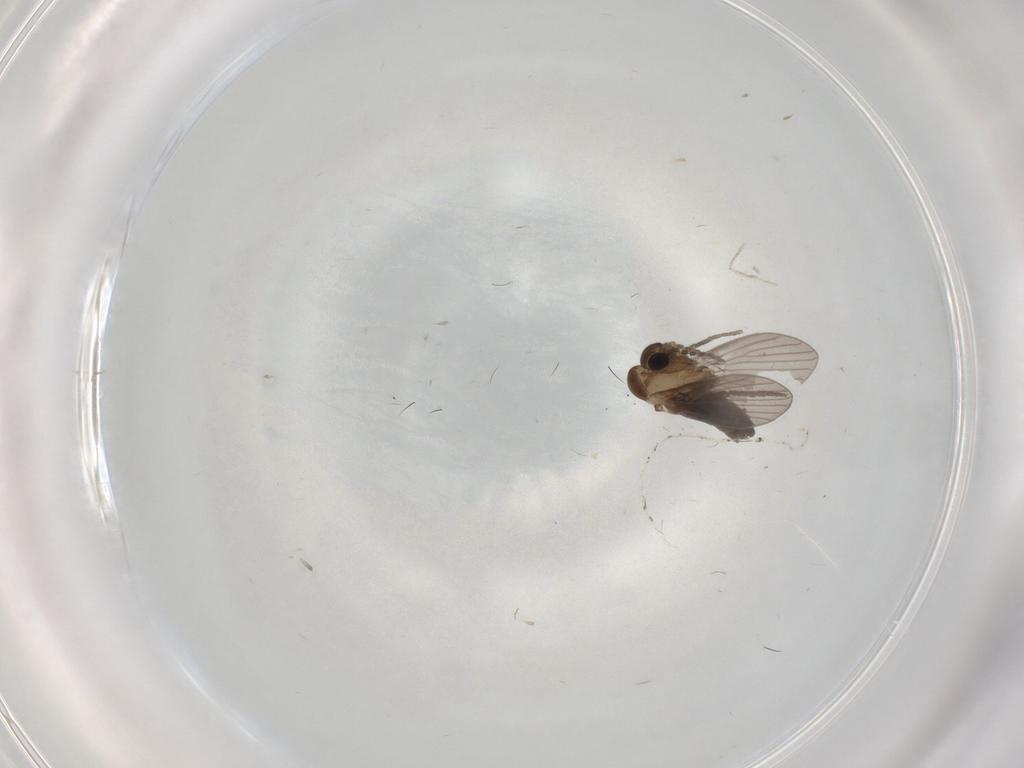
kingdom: Animalia
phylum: Arthropoda
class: Insecta
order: Diptera
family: Cecidomyiidae
